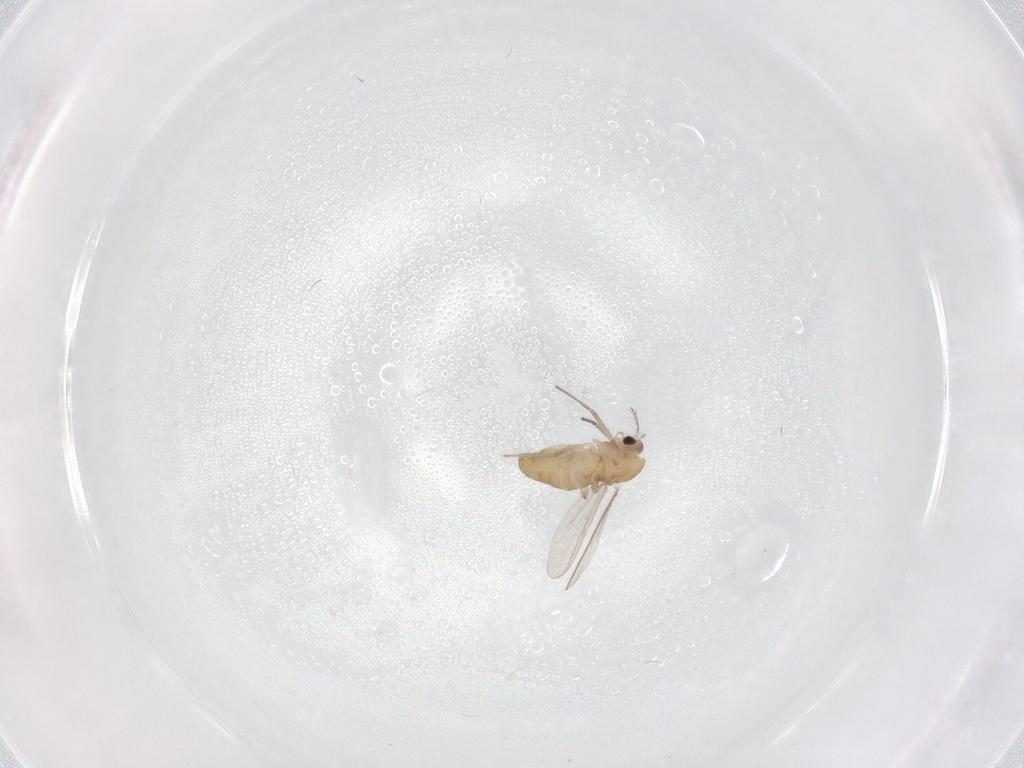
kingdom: Animalia
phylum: Arthropoda
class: Insecta
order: Diptera
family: Chironomidae
